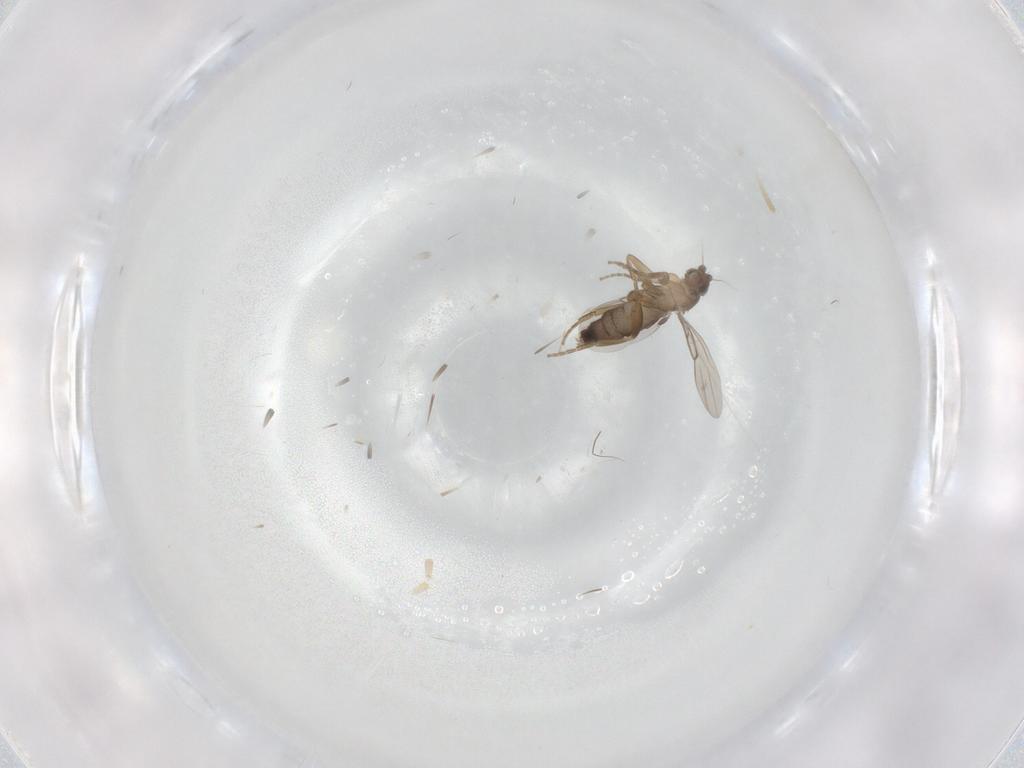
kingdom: Animalia
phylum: Arthropoda
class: Insecta
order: Diptera
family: Phoridae
